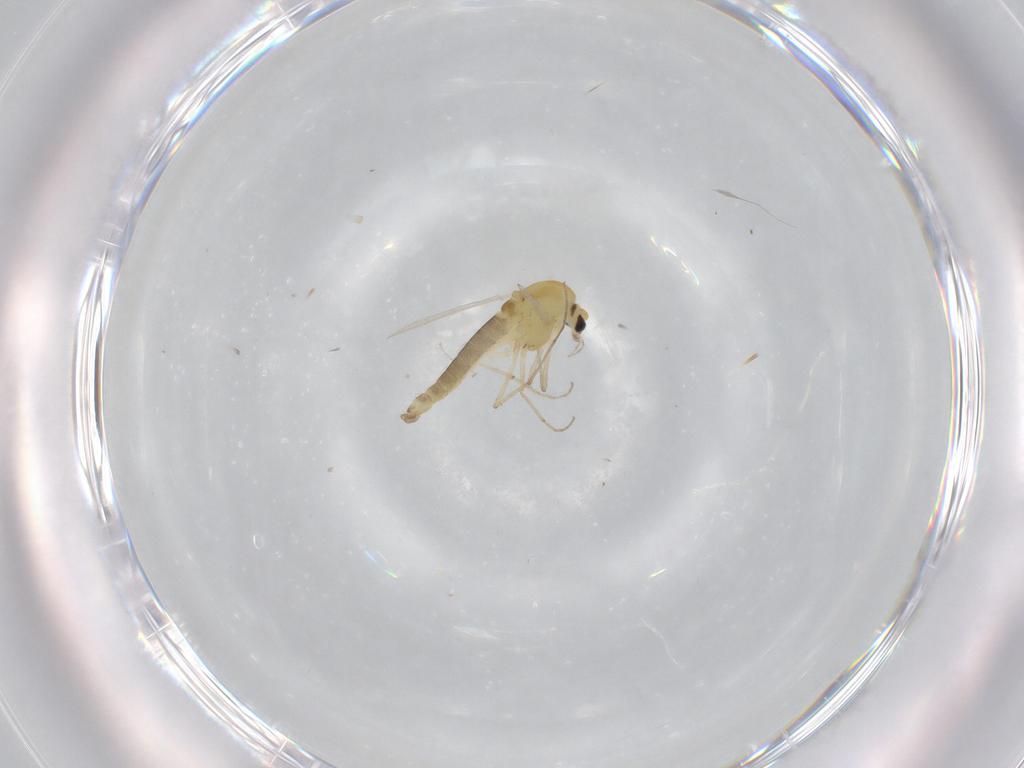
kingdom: Animalia
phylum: Arthropoda
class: Insecta
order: Diptera
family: Chironomidae
